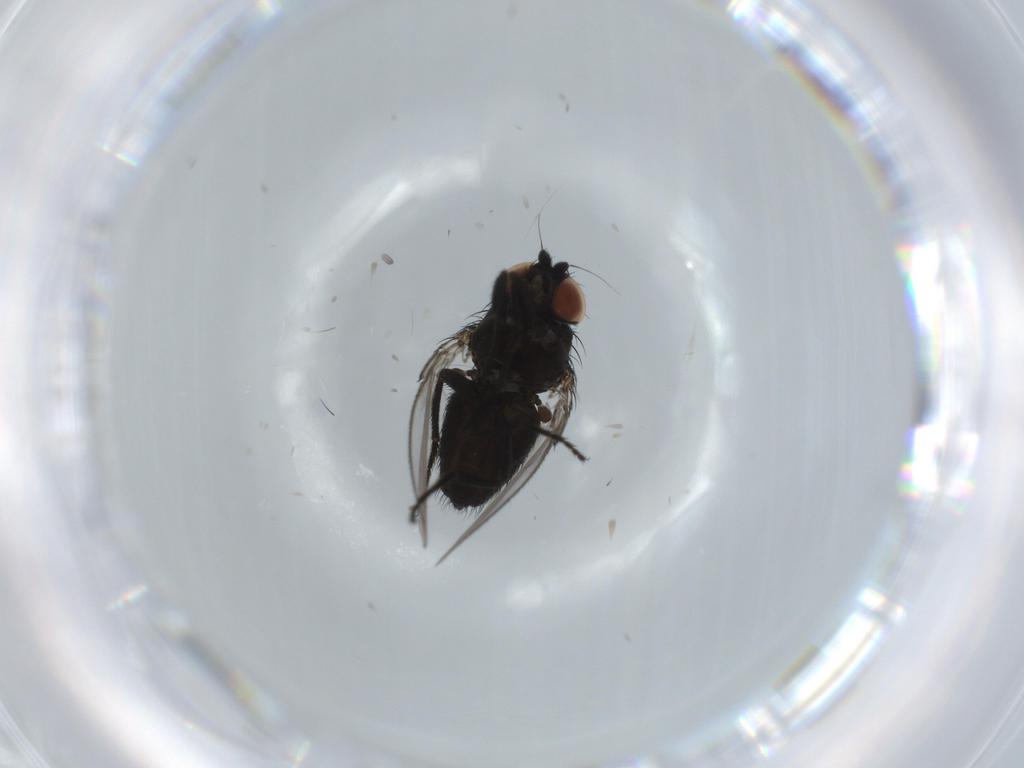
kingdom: Animalia
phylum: Arthropoda
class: Insecta
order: Diptera
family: Milichiidae
